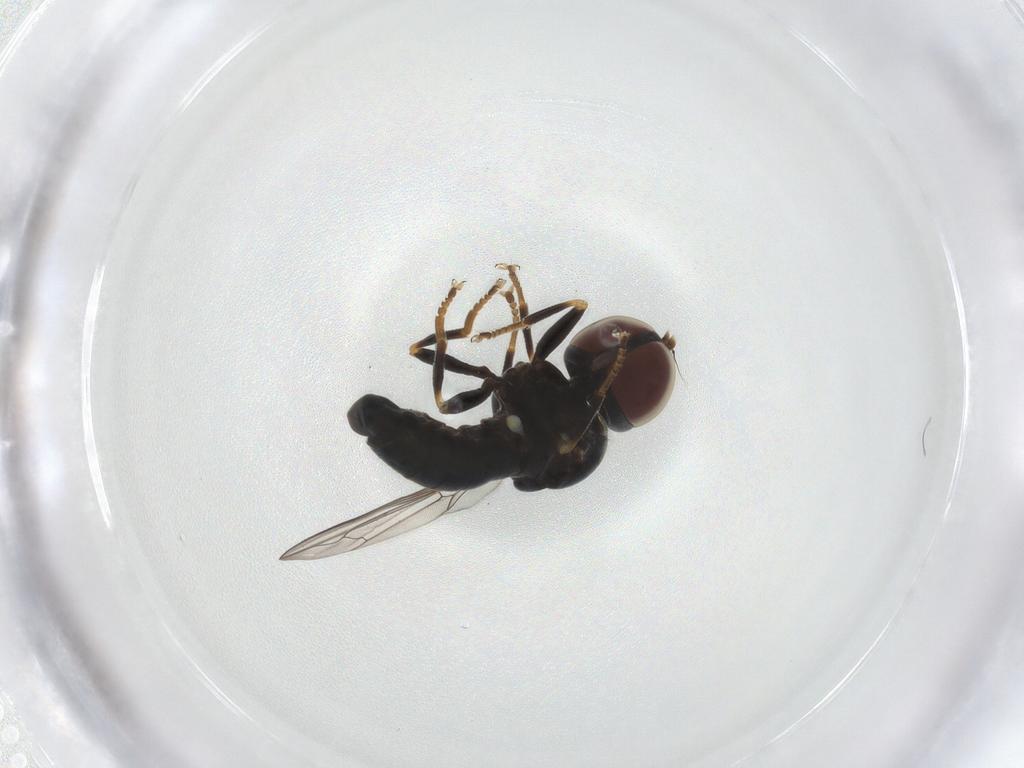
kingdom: Animalia
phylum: Arthropoda
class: Insecta
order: Diptera
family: Pipunculidae
